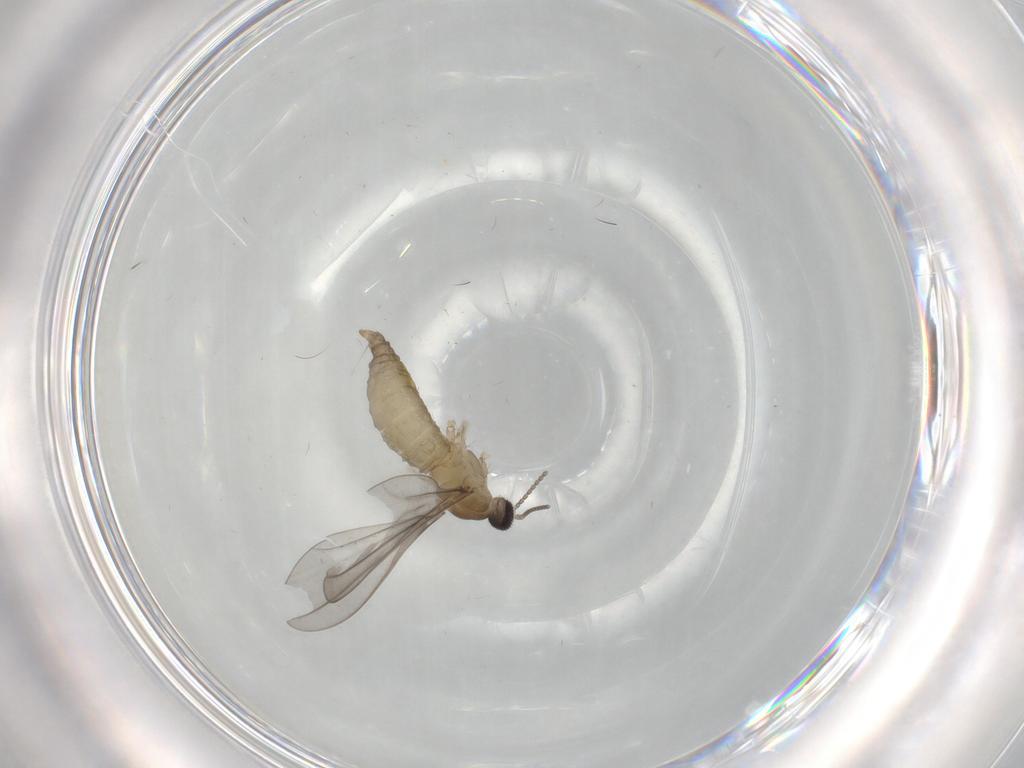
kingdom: Animalia
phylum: Arthropoda
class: Insecta
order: Diptera
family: Cecidomyiidae
